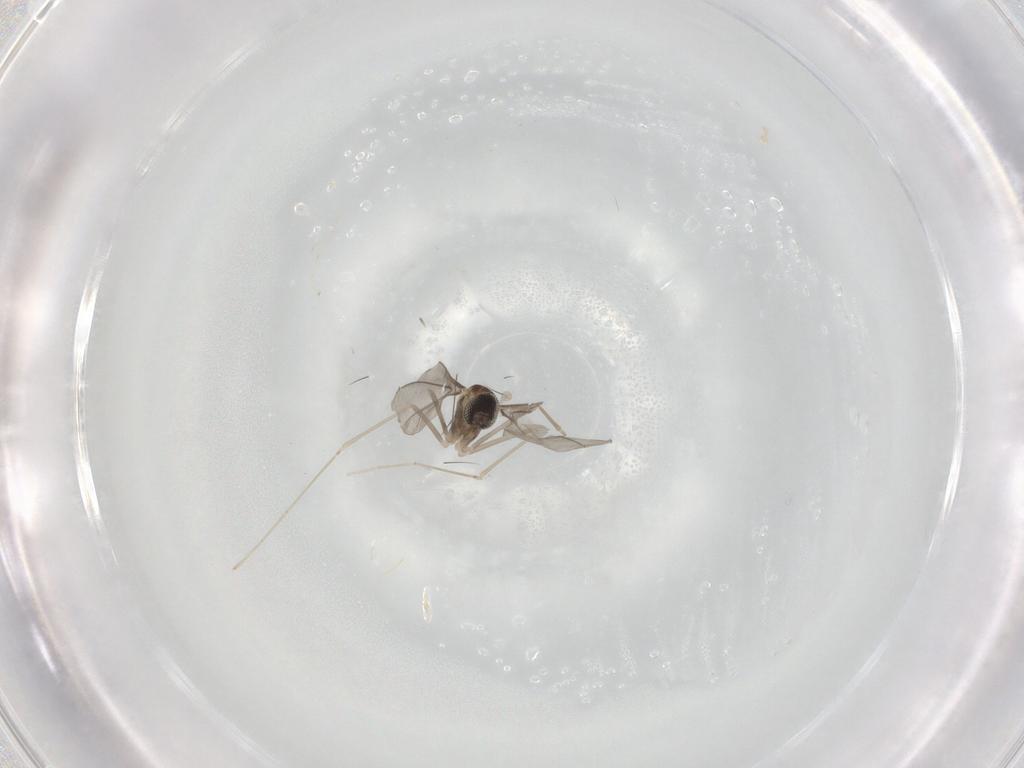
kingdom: Animalia
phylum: Arthropoda
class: Insecta
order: Diptera
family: Cecidomyiidae
